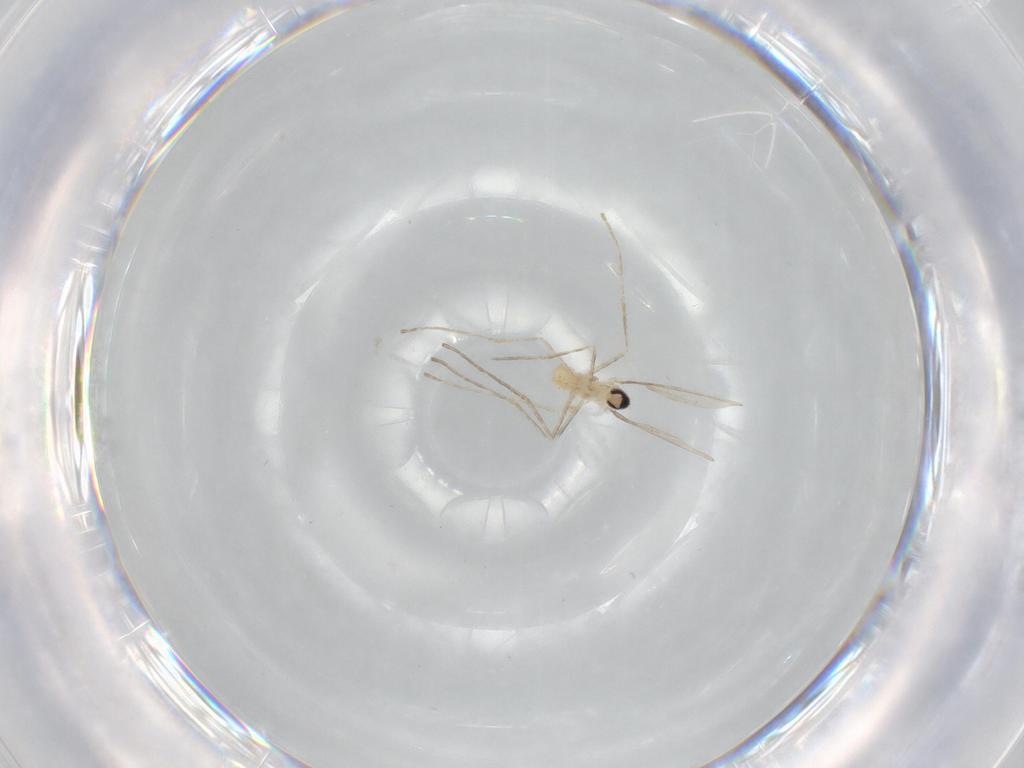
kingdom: Animalia
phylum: Arthropoda
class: Insecta
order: Diptera
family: Cecidomyiidae
